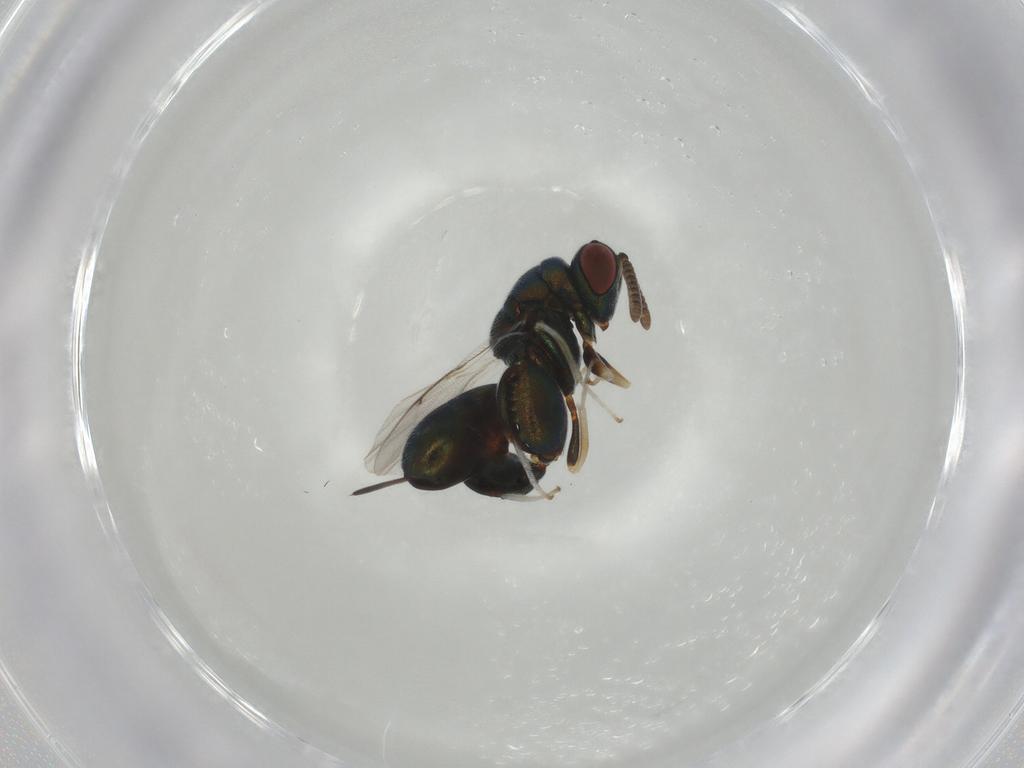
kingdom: Animalia
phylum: Arthropoda
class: Insecta
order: Hymenoptera
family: Torymidae
